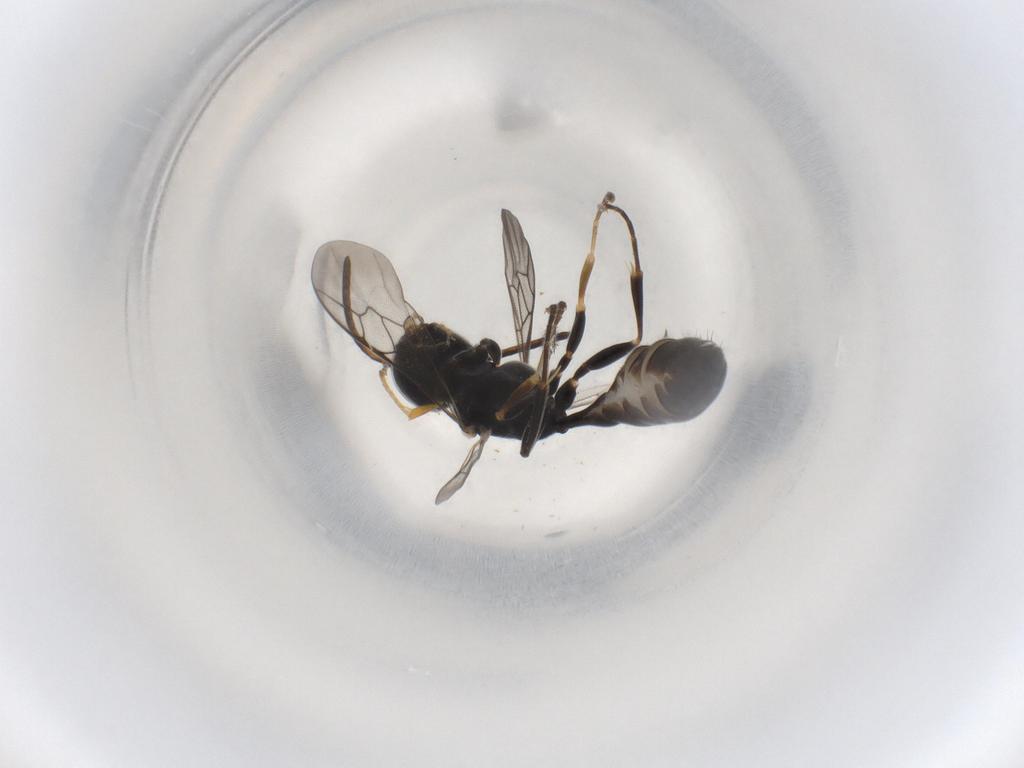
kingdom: Animalia
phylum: Arthropoda
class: Insecta
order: Hymenoptera
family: Crabronidae
